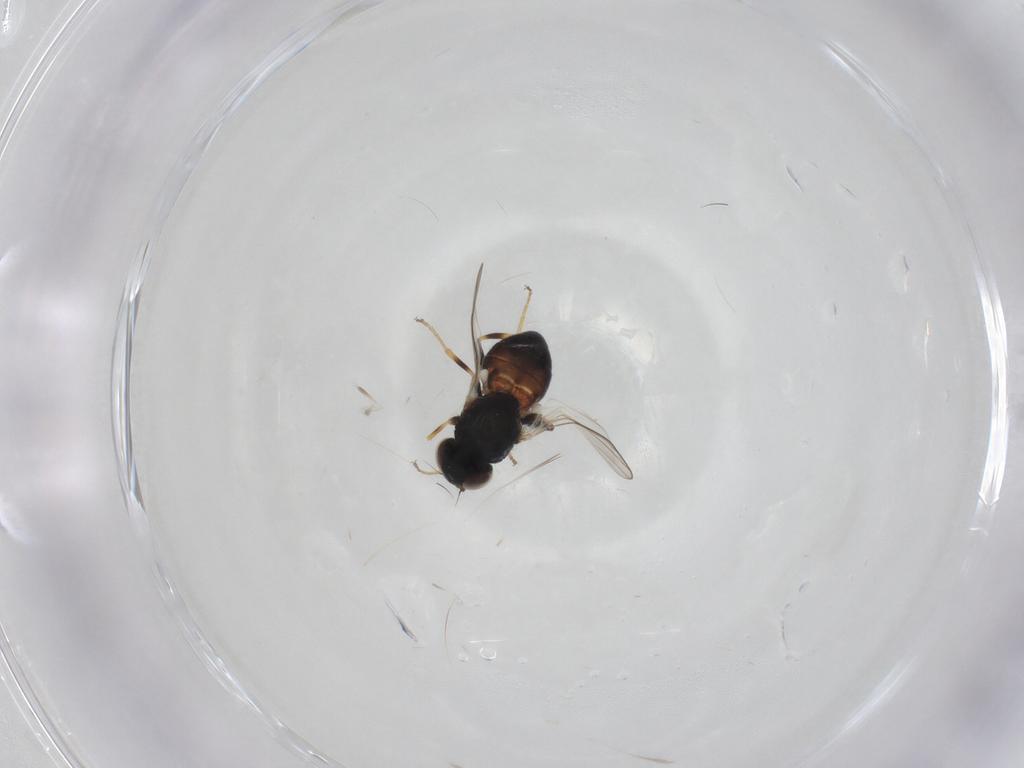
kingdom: Animalia
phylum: Arthropoda
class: Insecta
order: Diptera
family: Chloropidae
